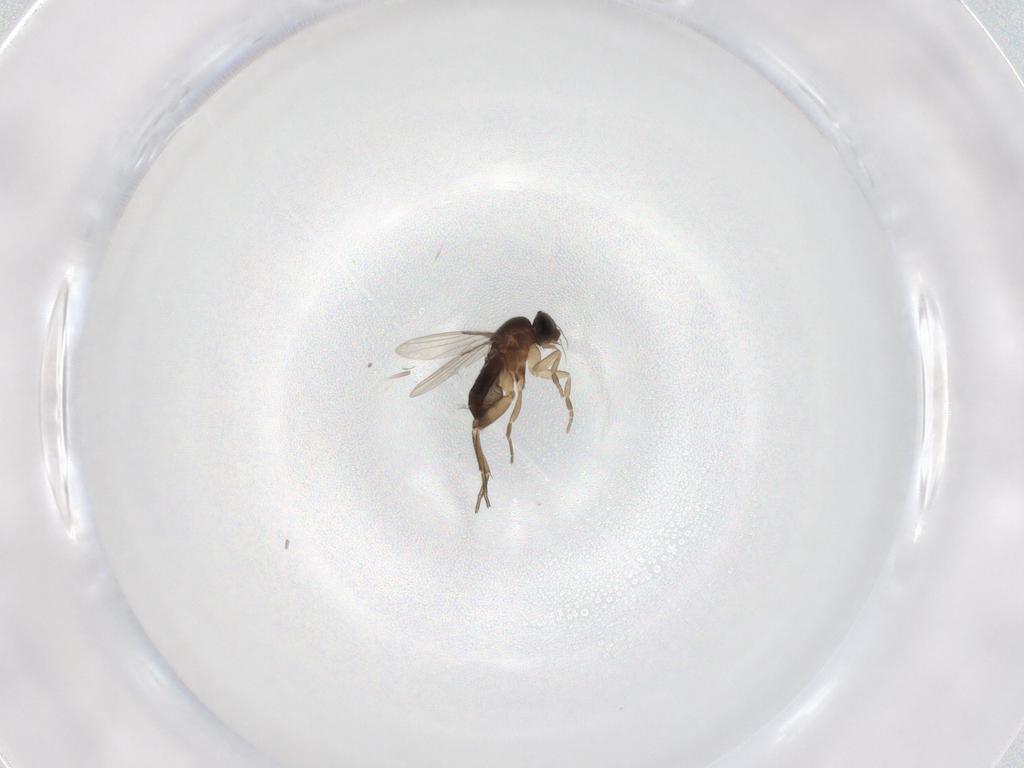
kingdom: Animalia
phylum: Arthropoda
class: Insecta
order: Diptera
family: Phoridae
